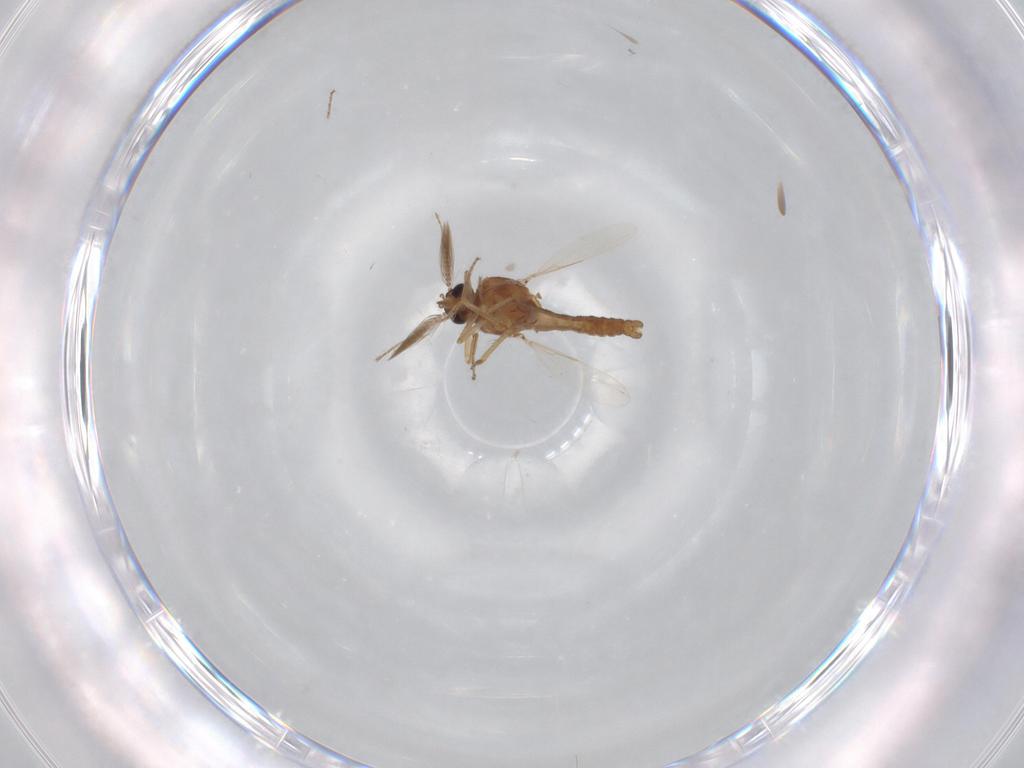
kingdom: Animalia
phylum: Arthropoda
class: Insecta
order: Diptera
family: Ceratopogonidae
